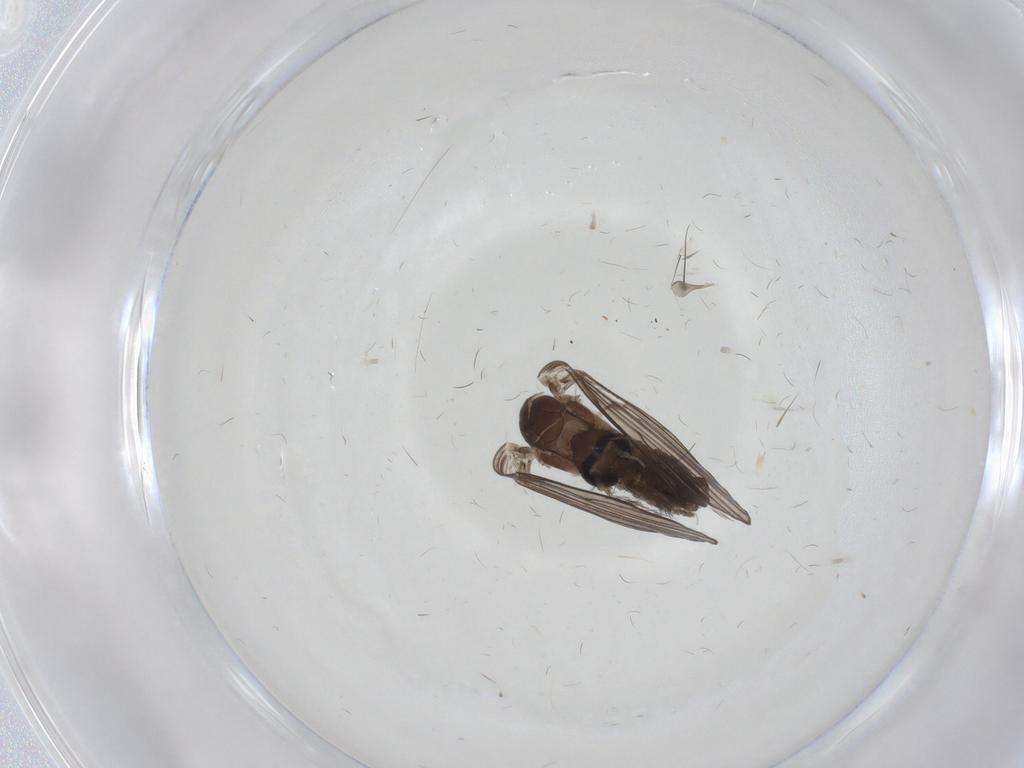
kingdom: Animalia
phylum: Arthropoda
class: Insecta
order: Diptera
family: Psychodidae
